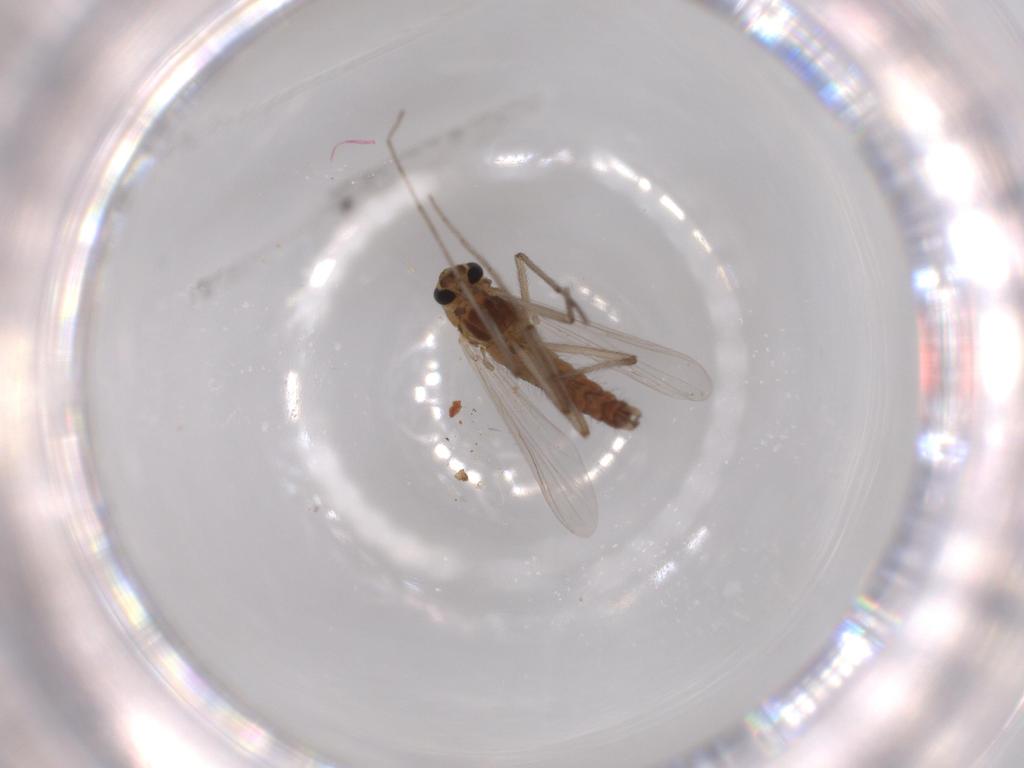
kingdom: Animalia
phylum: Arthropoda
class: Insecta
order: Diptera
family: Chironomidae
